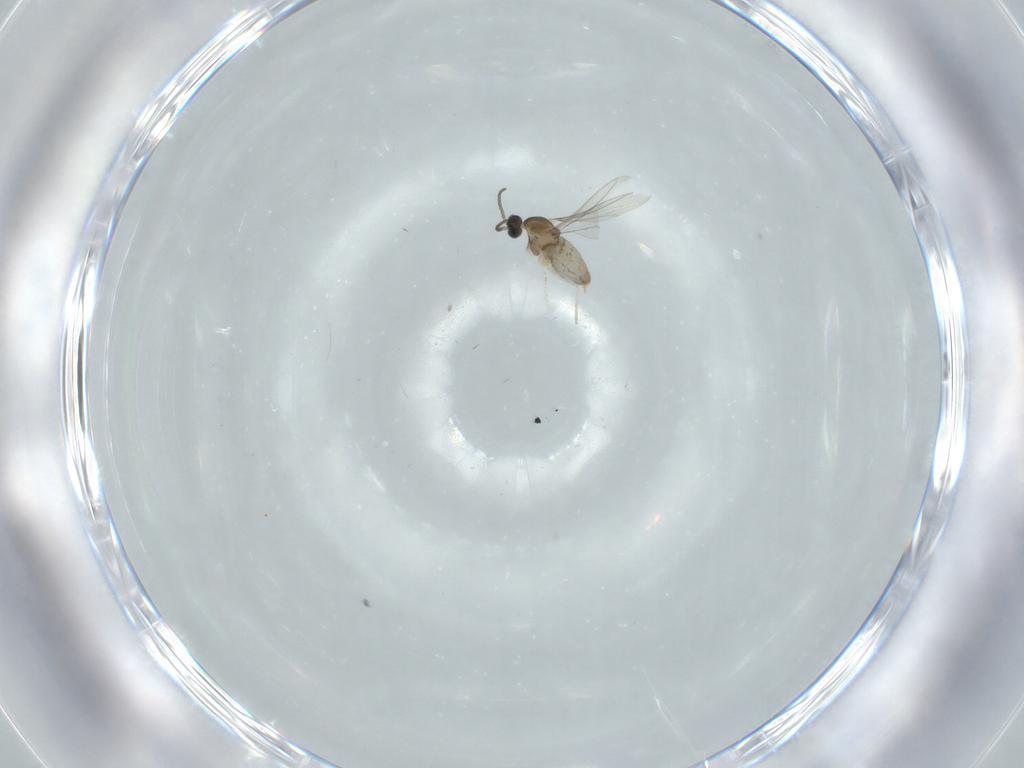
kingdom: Animalia
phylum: Arthropoda
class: Insecta
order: Diptera
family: Cecidomyiidae
